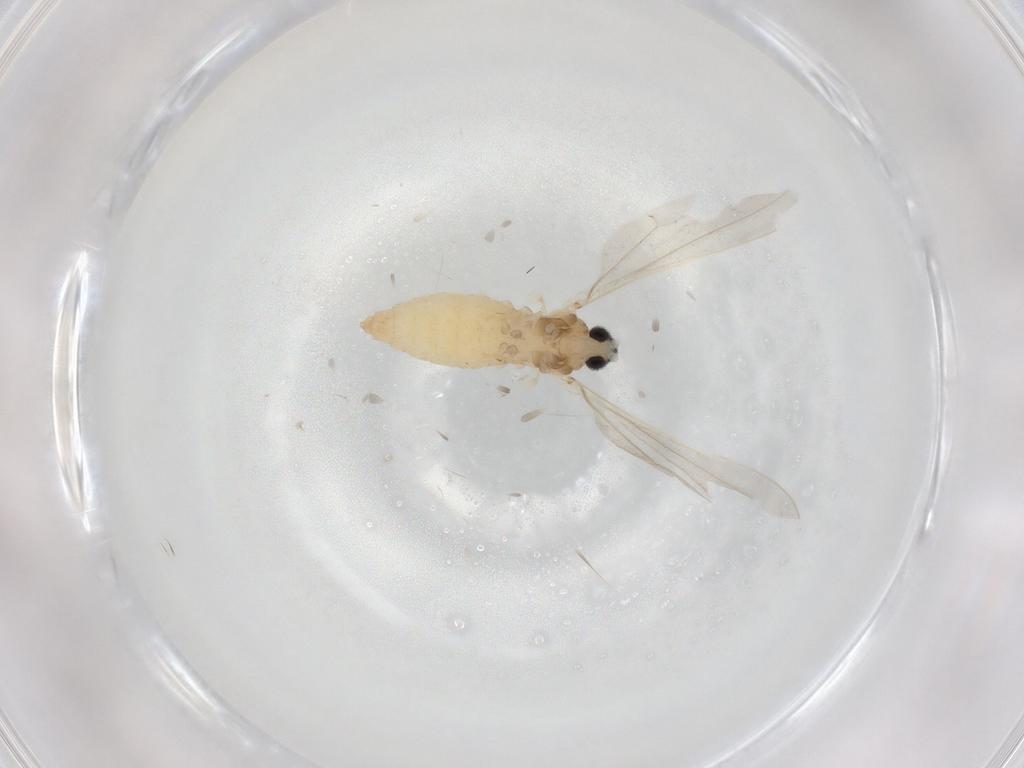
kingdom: Animalia
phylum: Arthropoda
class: Insecta
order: Diptera
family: Cecidomyiidae
